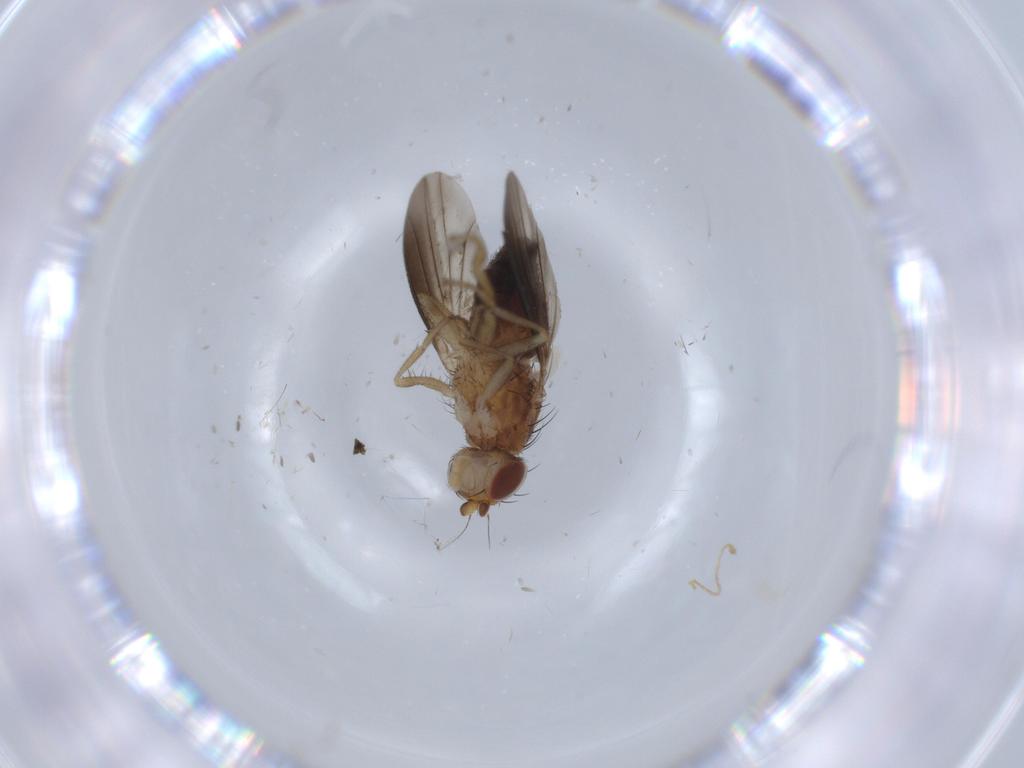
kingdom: Animalia
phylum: Arthropoda
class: Insecta
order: Diptera
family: Heleomyzidae
